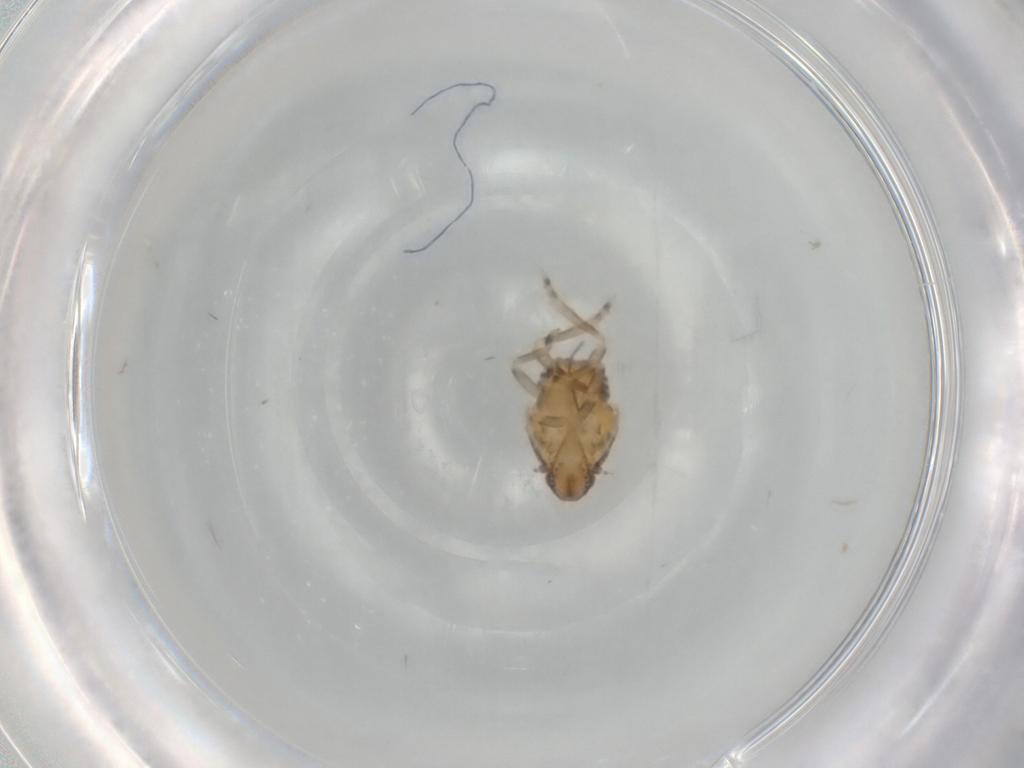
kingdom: Animalia
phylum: Arthropoda
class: Insecta
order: Hemiptera
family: Flatidae
